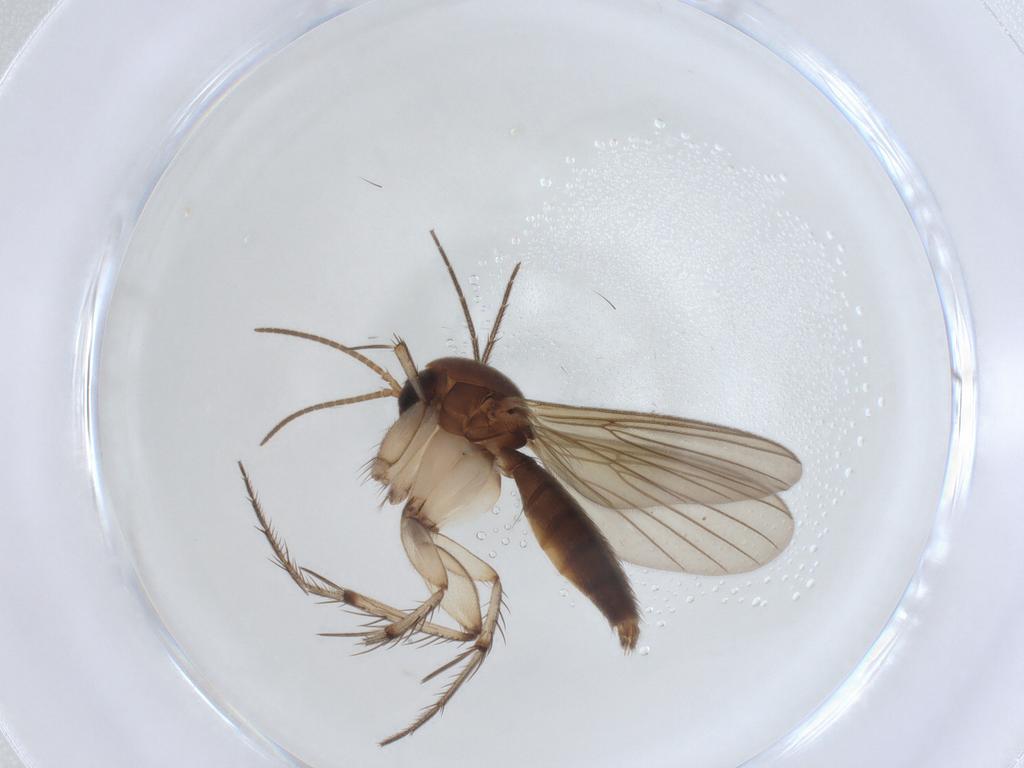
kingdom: Animalia
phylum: Arthropoda
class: Insecta
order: Diptera
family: Mycetophilidae
